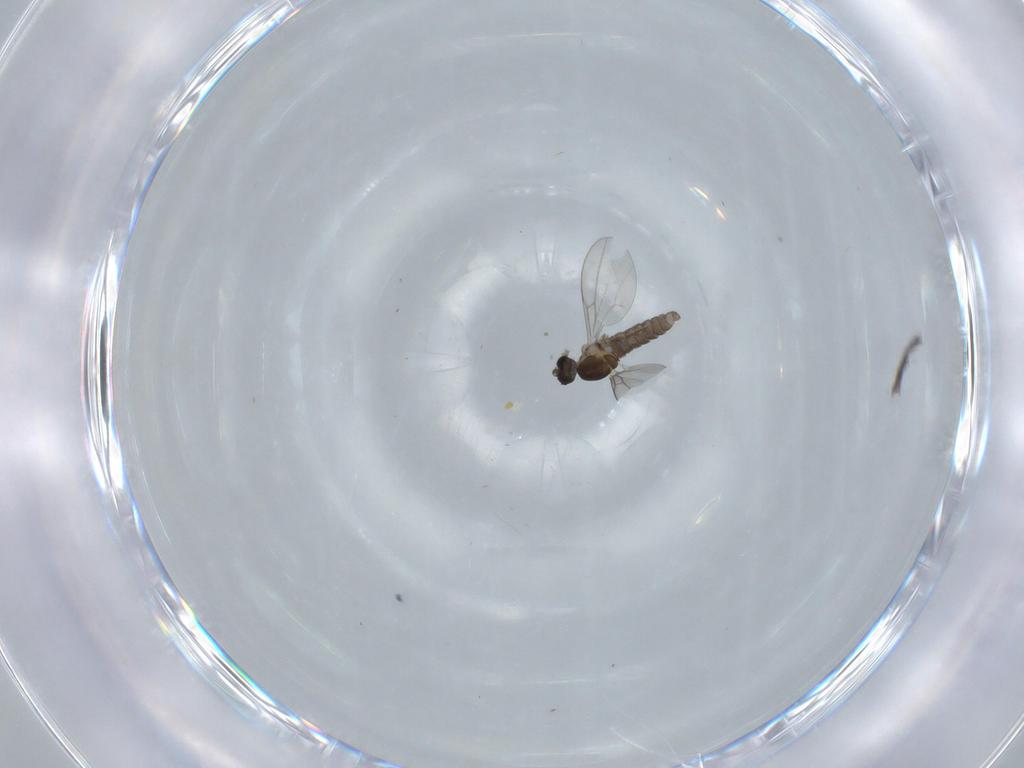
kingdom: Animalia
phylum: Arthropoda
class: Insecta
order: Diptera
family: Cecidomyiidae
